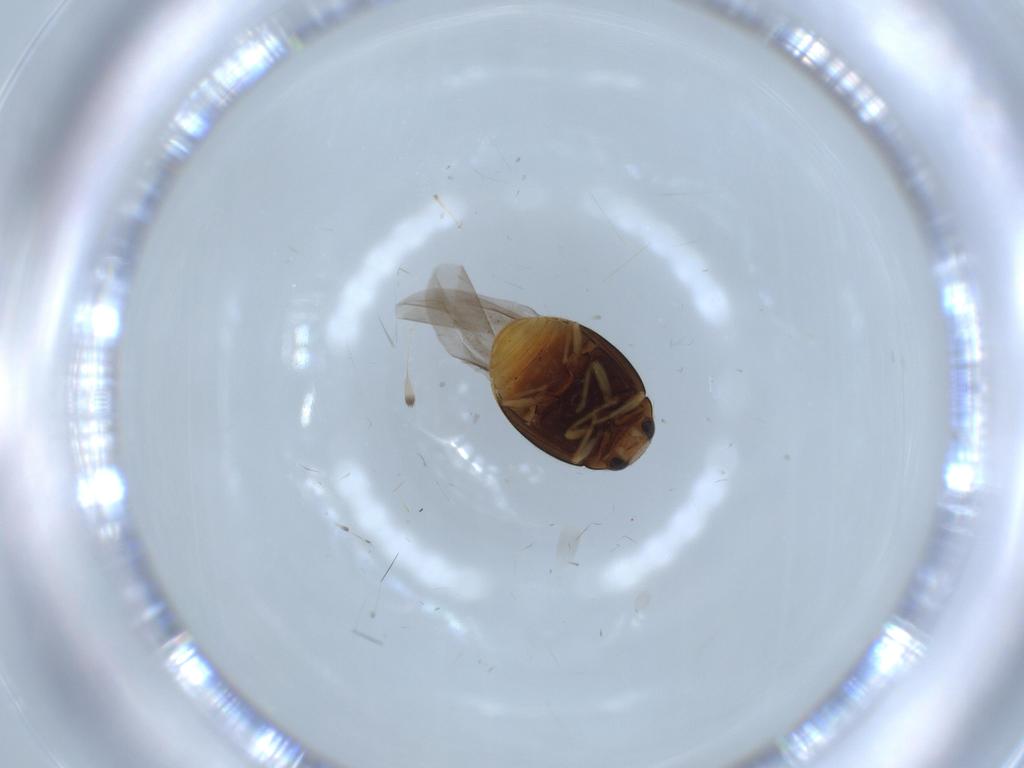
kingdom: Animalia
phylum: Arthropoda
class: Insecta
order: Coleoptera
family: Coccinellidae
